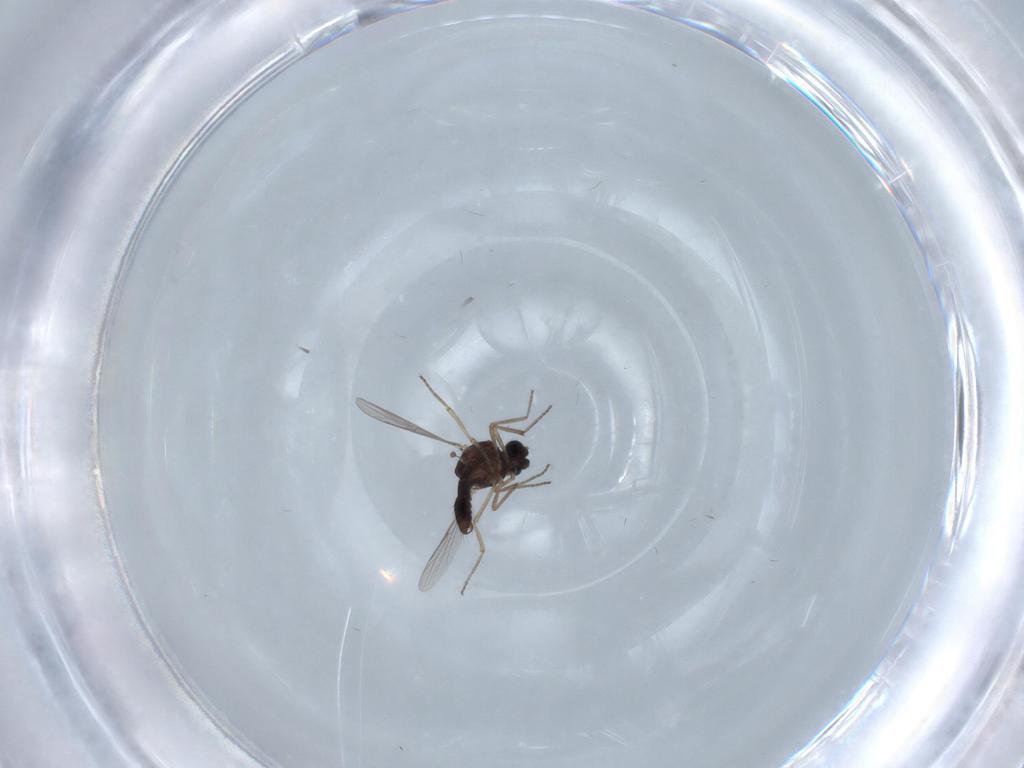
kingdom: Animalia
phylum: Arthropoda
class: Insecta
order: Diptera
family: Ceratopogonidae
